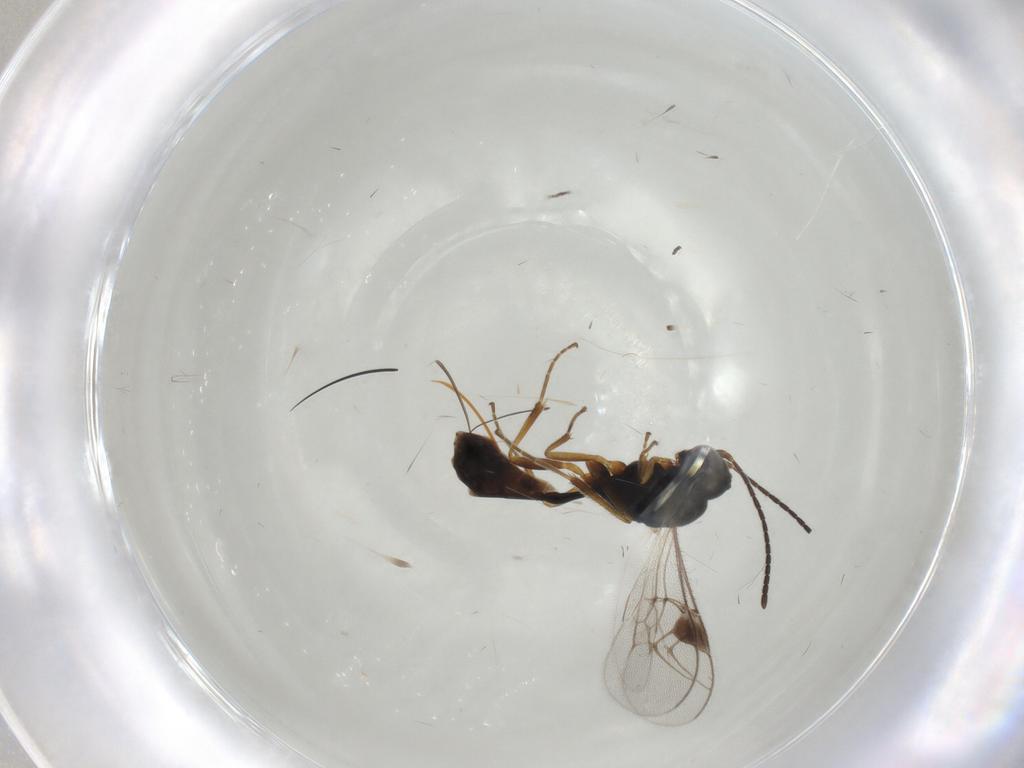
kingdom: Animalia
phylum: Arthropoda
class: Insecta
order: Hymenoptera
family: Ichneumonidae
